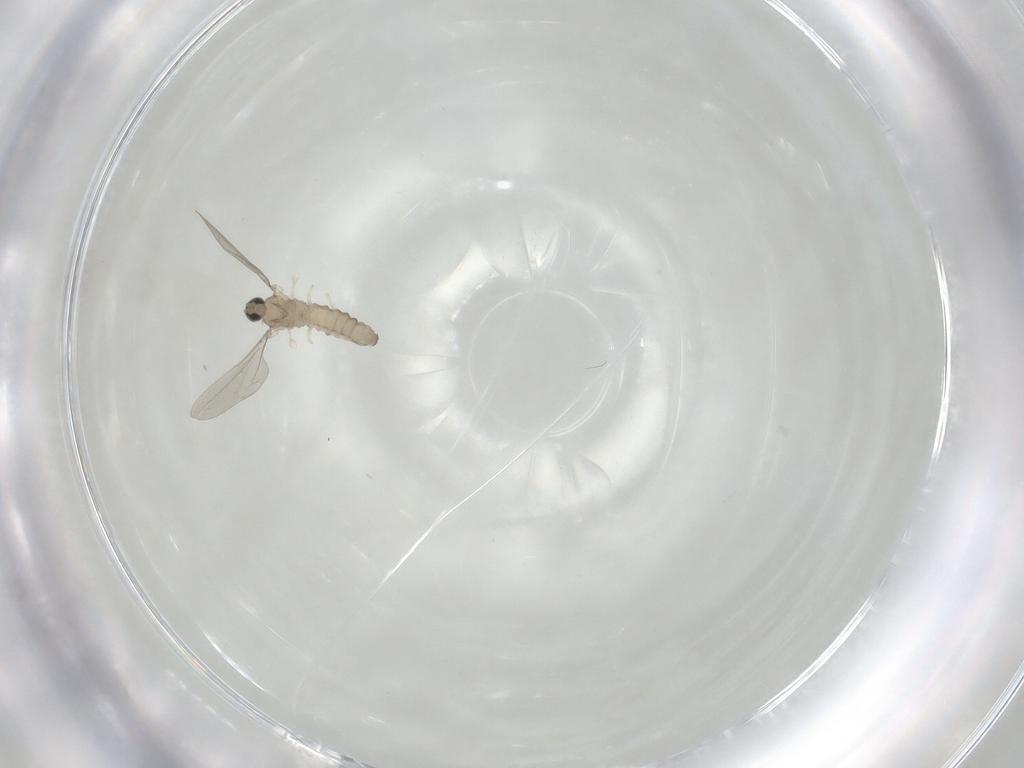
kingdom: Animalia
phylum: Arthropoda
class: Insecta
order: Diptera
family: Cecidomyiidae
